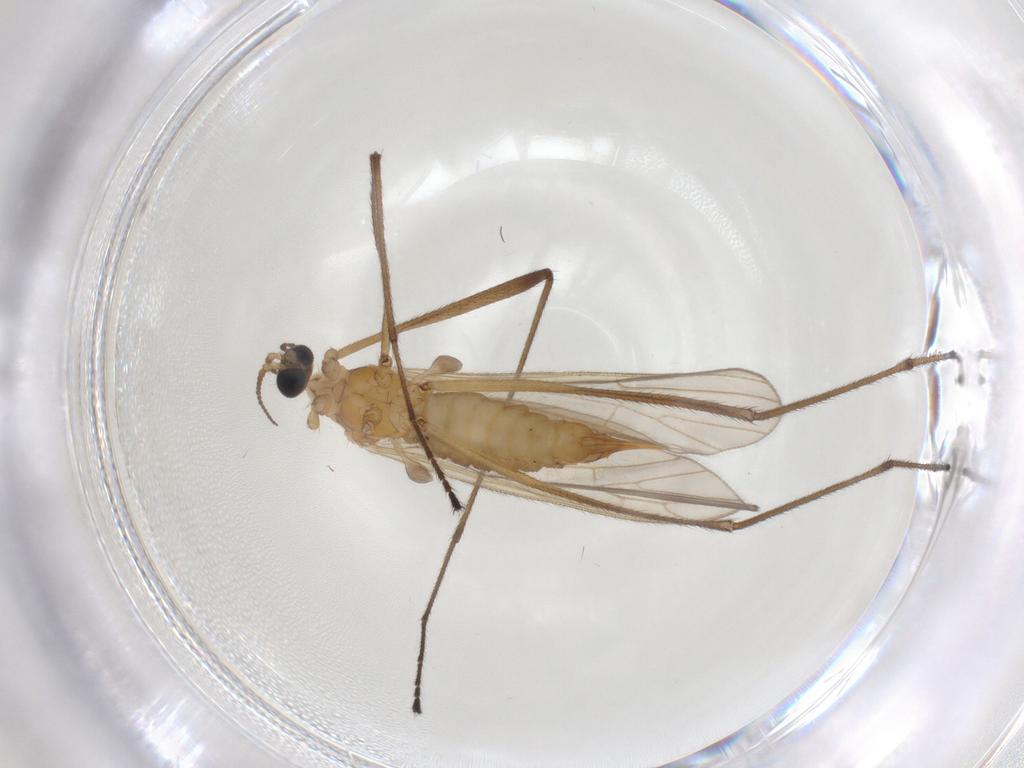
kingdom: Animalia
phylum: Arthropoda
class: Insecta
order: Diptera
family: Limoniidae
